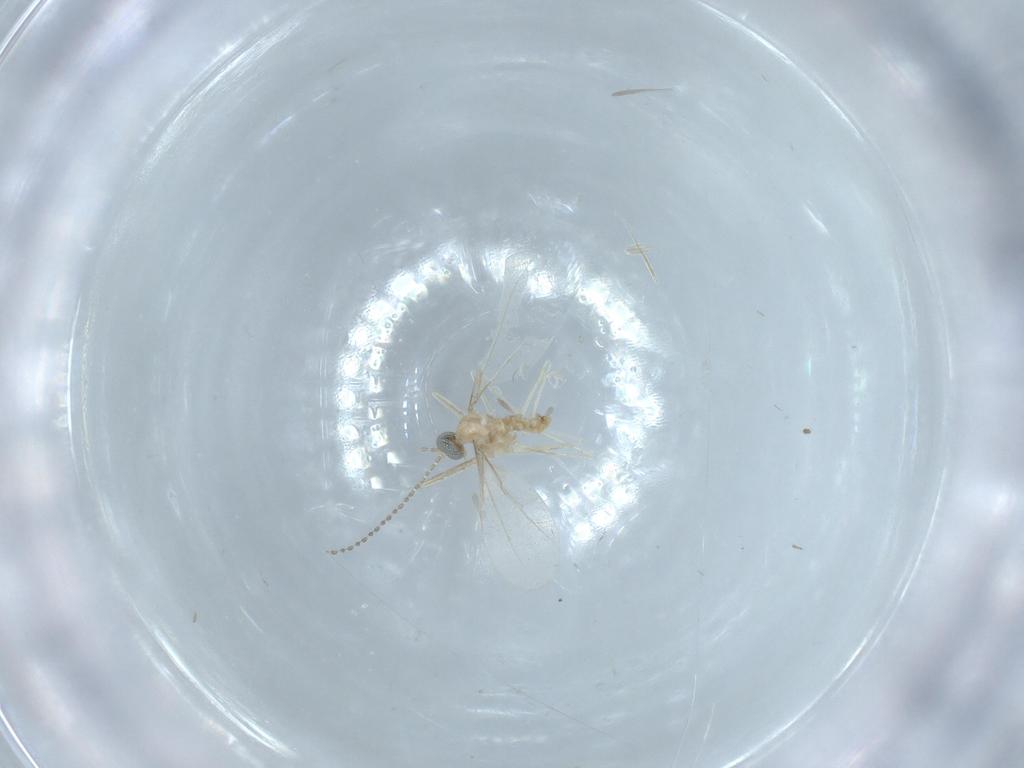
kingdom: Animalia
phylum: Arthropoda
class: Insecta
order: Diptera
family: Cecidomyiidae
